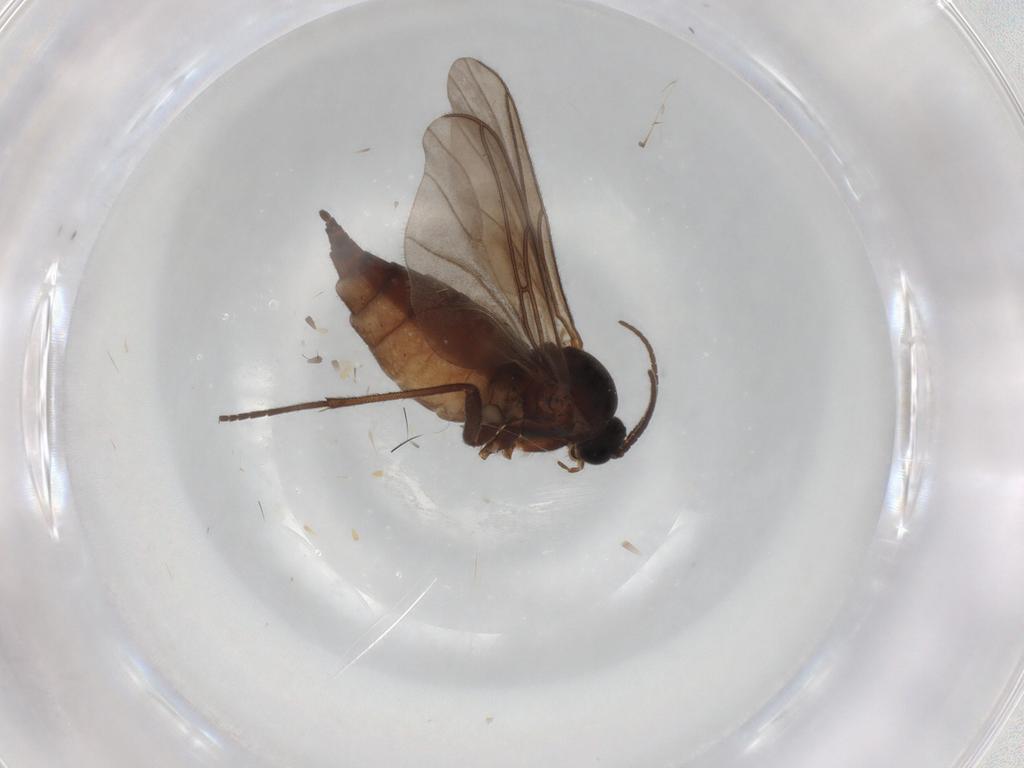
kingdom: Animalia
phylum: Arthropoda
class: Insecta
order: Diptera
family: Sciaridae
